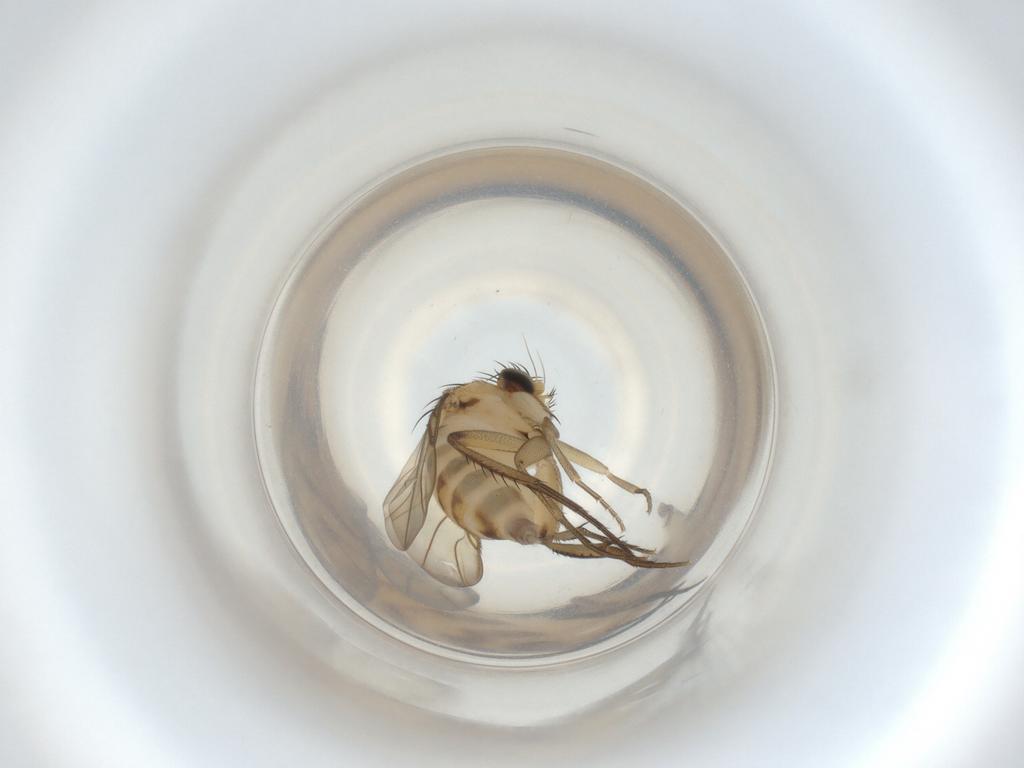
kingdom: Animalia
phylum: Arthropoda
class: Insecta
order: Diptera
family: Phoridae
